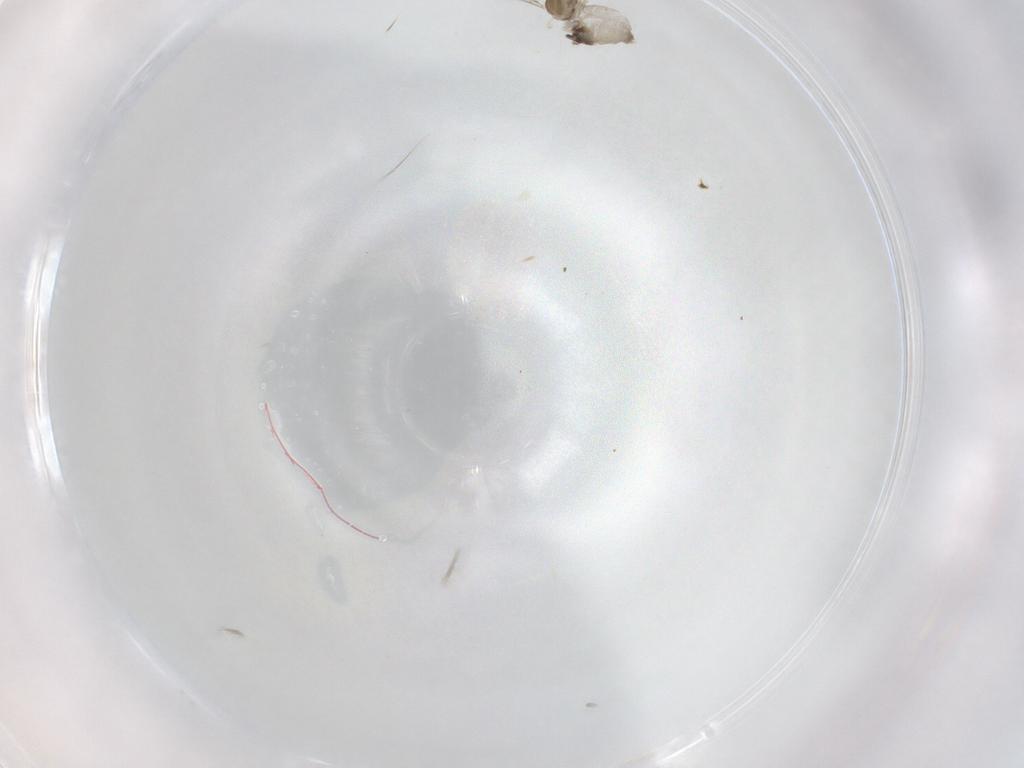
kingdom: Animalia
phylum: Arthropoda
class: Insecta
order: Diptera
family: Cecidomyiidae
